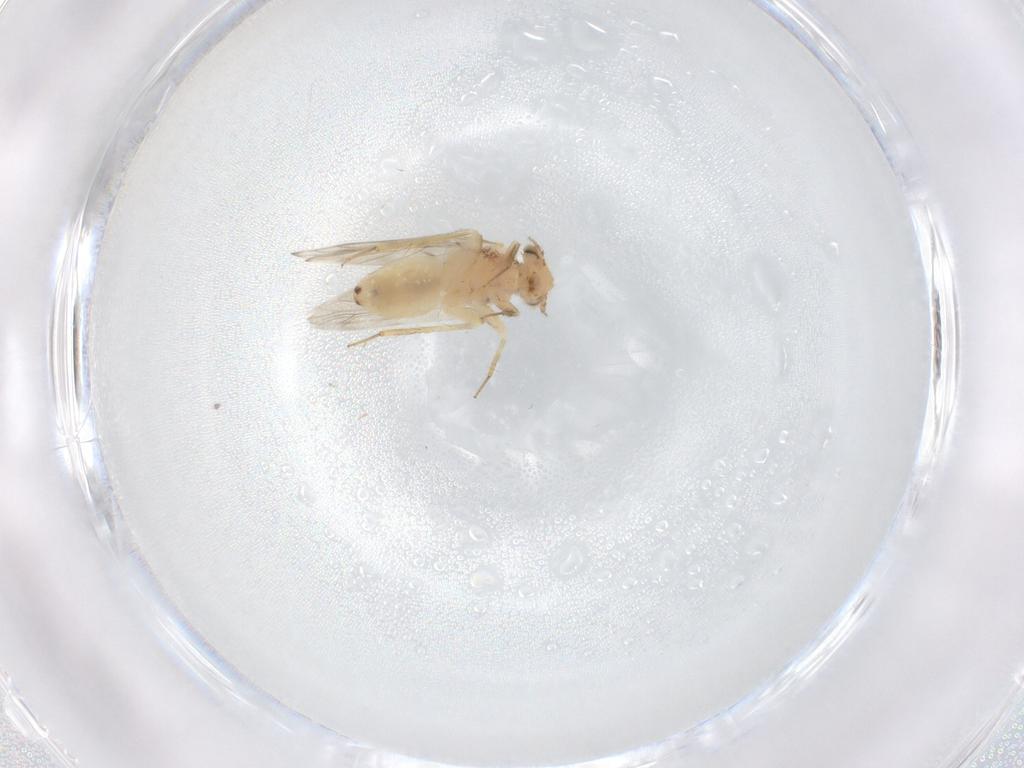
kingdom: Animalia
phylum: Arthropoda
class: Insecta
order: Psocodea
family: Lepidopsocidae
